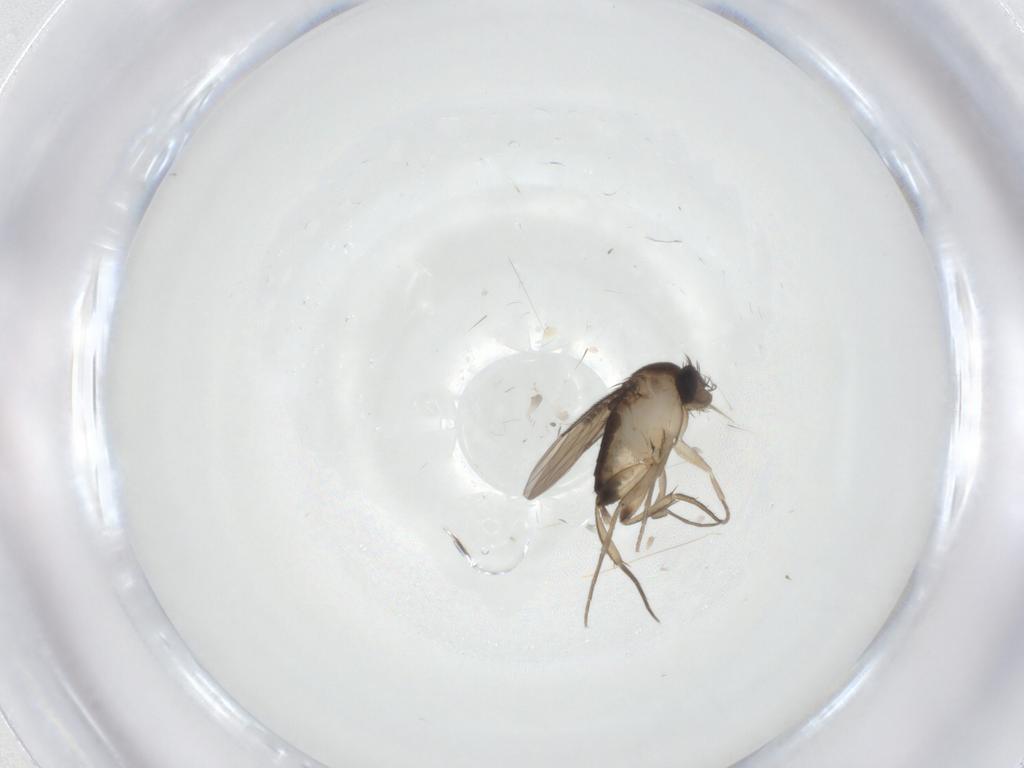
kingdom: Animalia
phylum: Arthropoda
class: Insecta
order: Diptera
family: Phoridae
